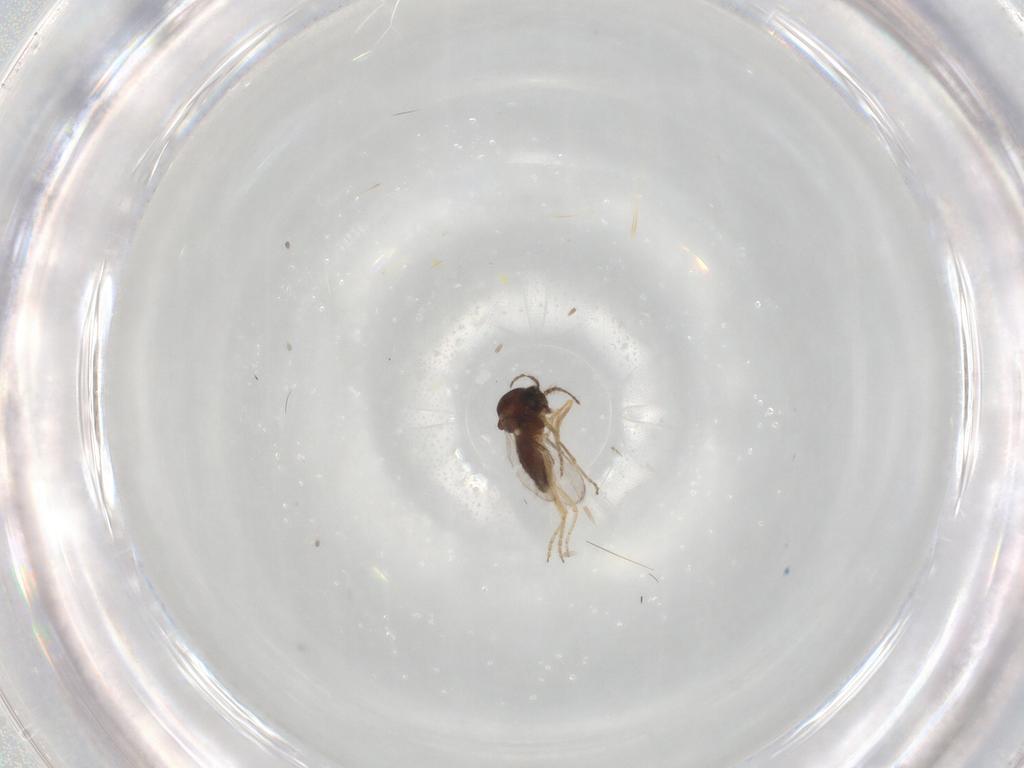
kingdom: Animalia
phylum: Arthropoda
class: Insecta
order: Diptera
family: Ceratopogonidae
